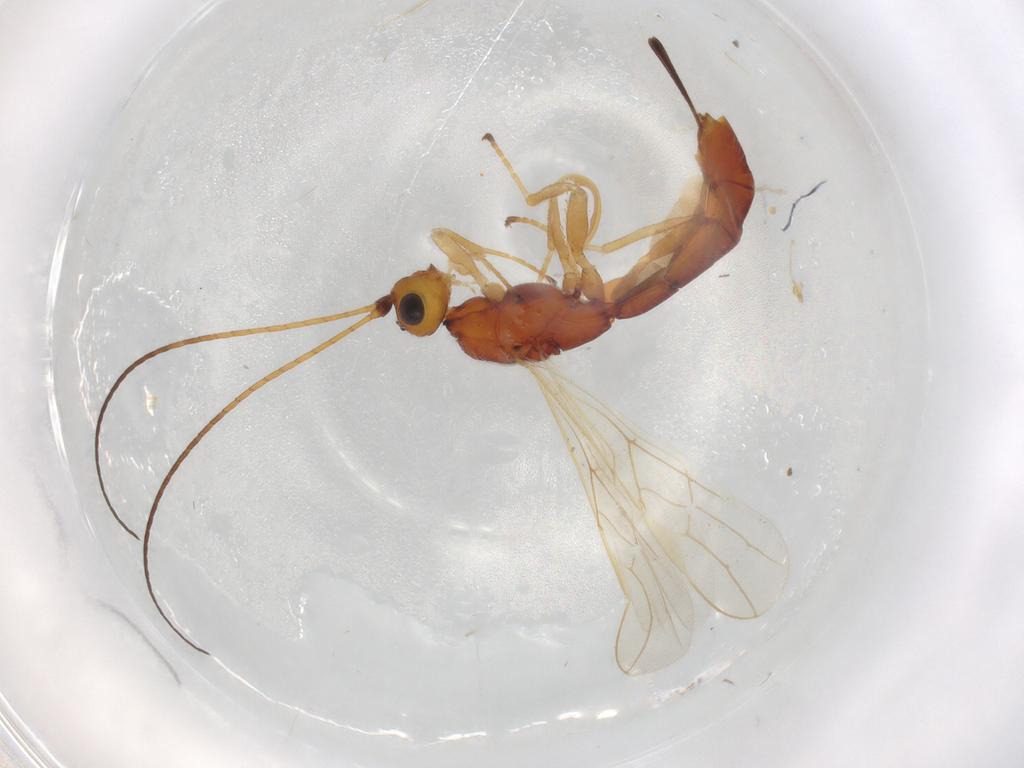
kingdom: Animalia
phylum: Arthropoda
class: Insecta
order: Hymenoptera
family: Braconidae
